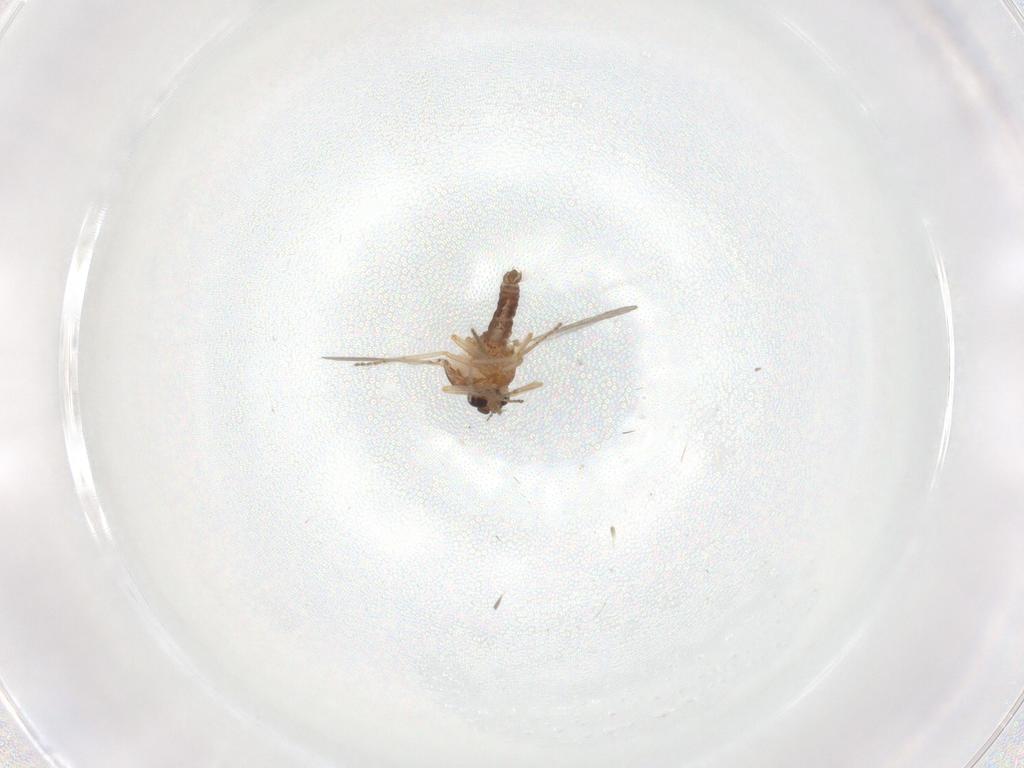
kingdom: Animalia
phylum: Arthropoda
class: Insecta
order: Diptera
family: Ceratopogonidae
